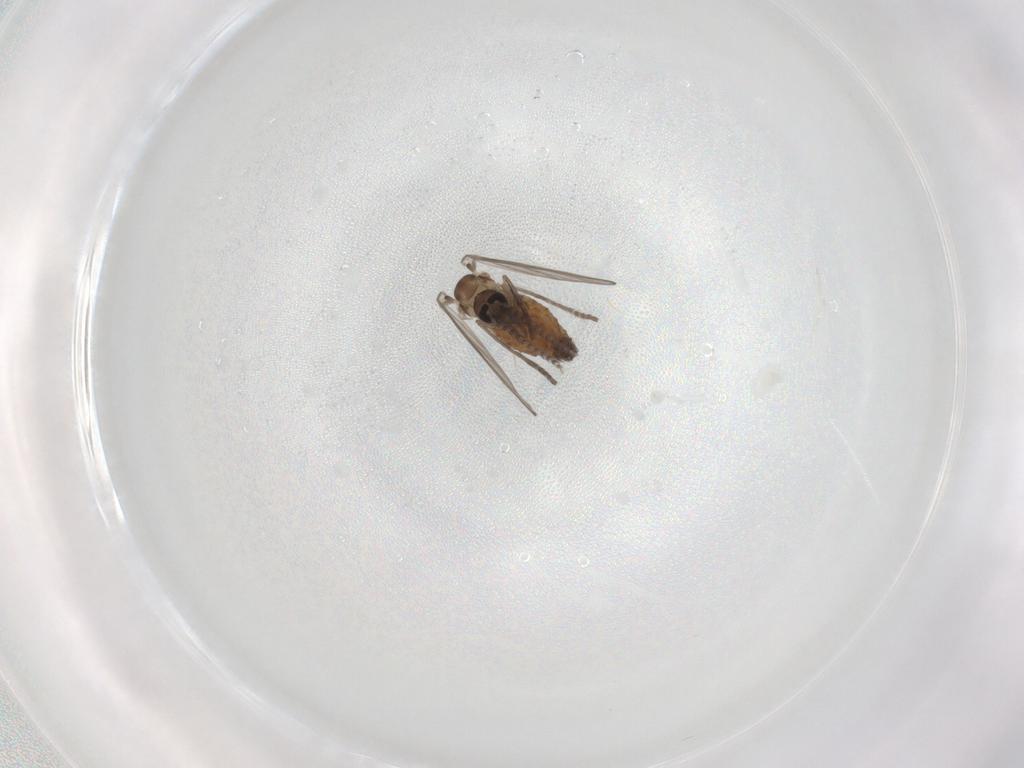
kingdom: Animalia
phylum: Arthropoda
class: Insecta
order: Diptera
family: Psychodidae
